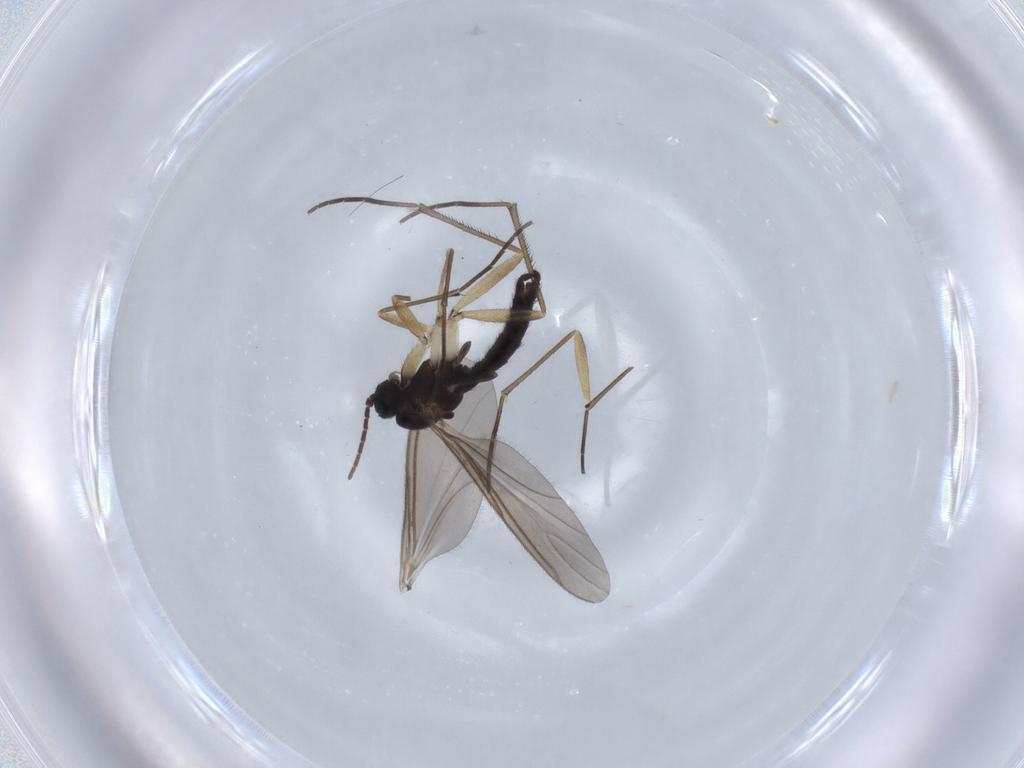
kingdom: Animalia
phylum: Arthropoda
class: Insecta
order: Diptera
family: Sciaridae
